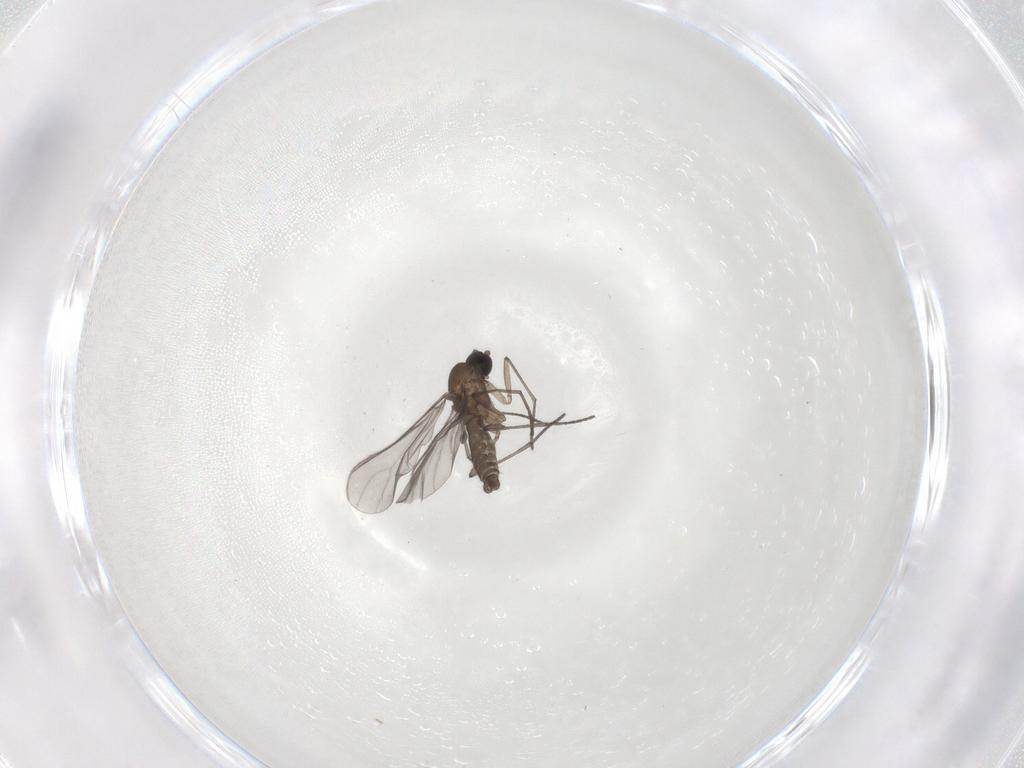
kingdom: Animalia
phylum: Arthropoda
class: Insecta
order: Diptera
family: Sciaridae
